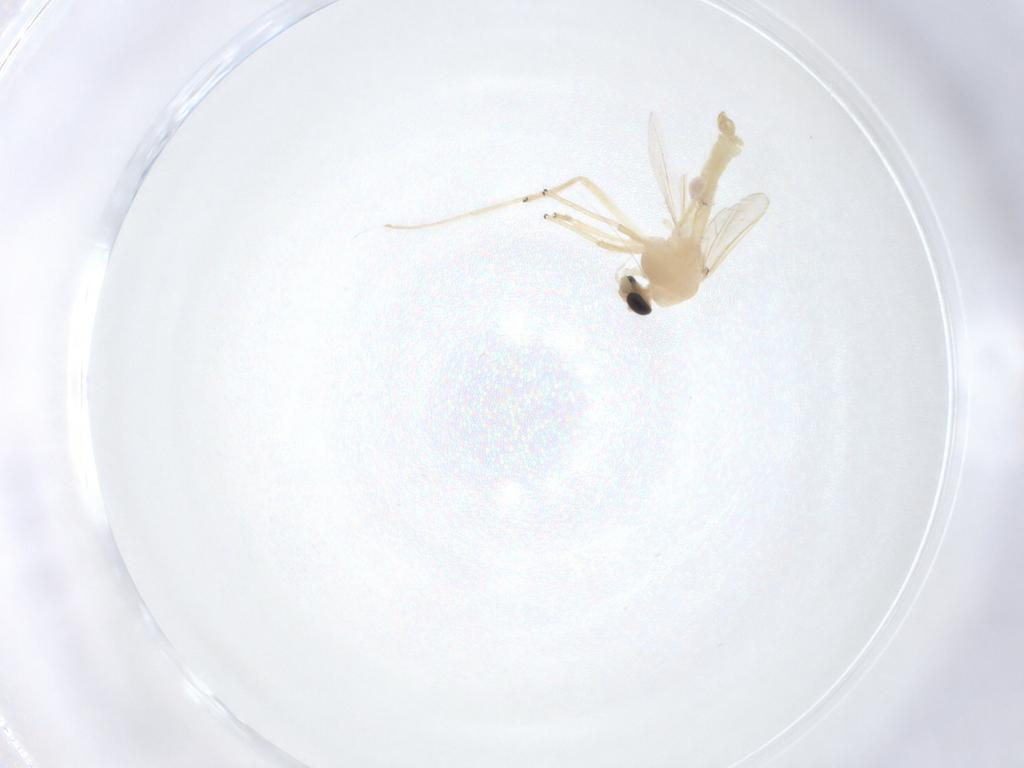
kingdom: Animalia
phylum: Arthropoda
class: Insecta
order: Diptera
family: Chironomidae
